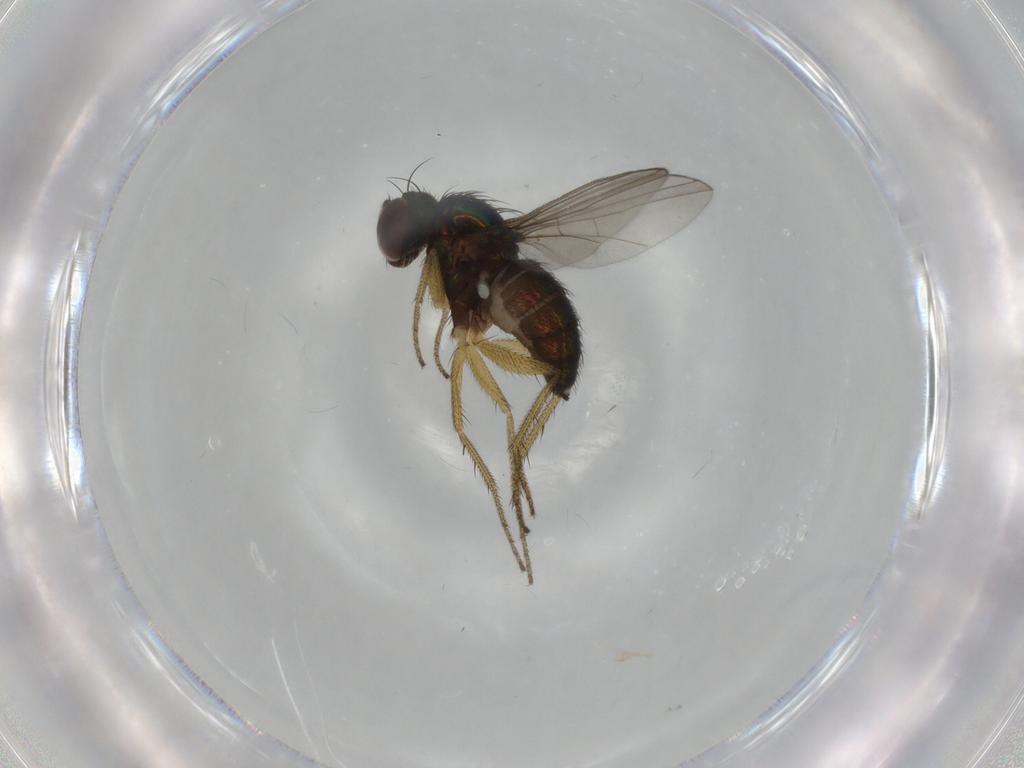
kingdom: Animalia
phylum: Arthropoda
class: Insecta
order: Diptera
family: Dolichopodidae
